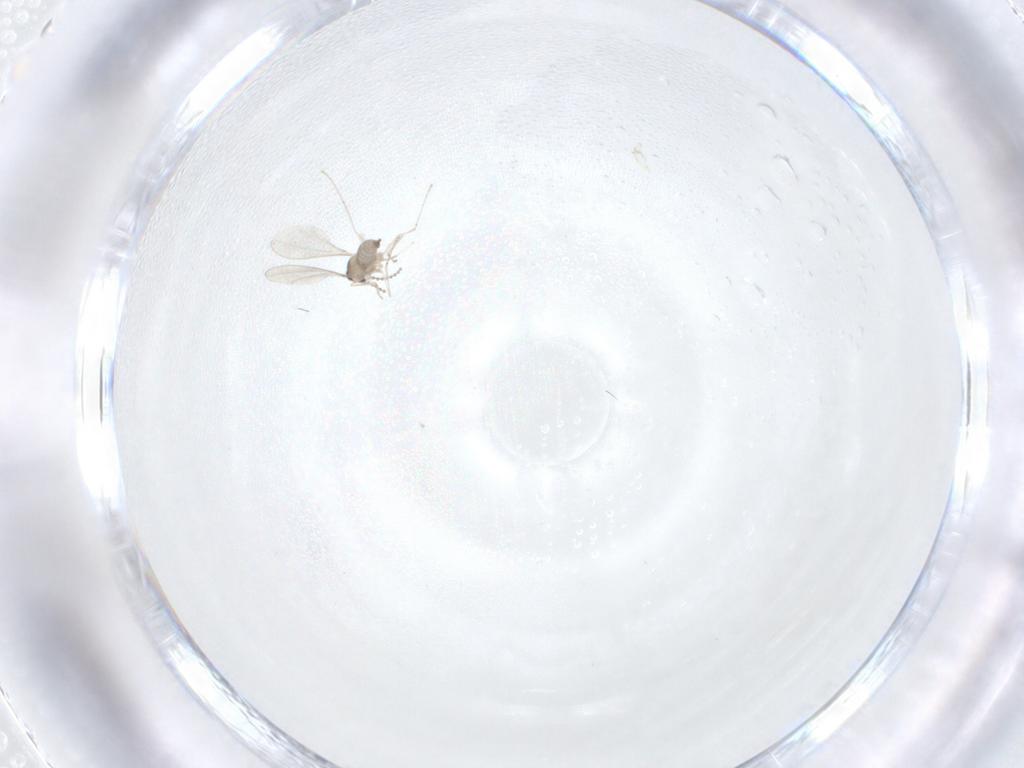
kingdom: Animalia
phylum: Arthropoda
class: Insecta
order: Diptera
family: Cecidomyiidae
